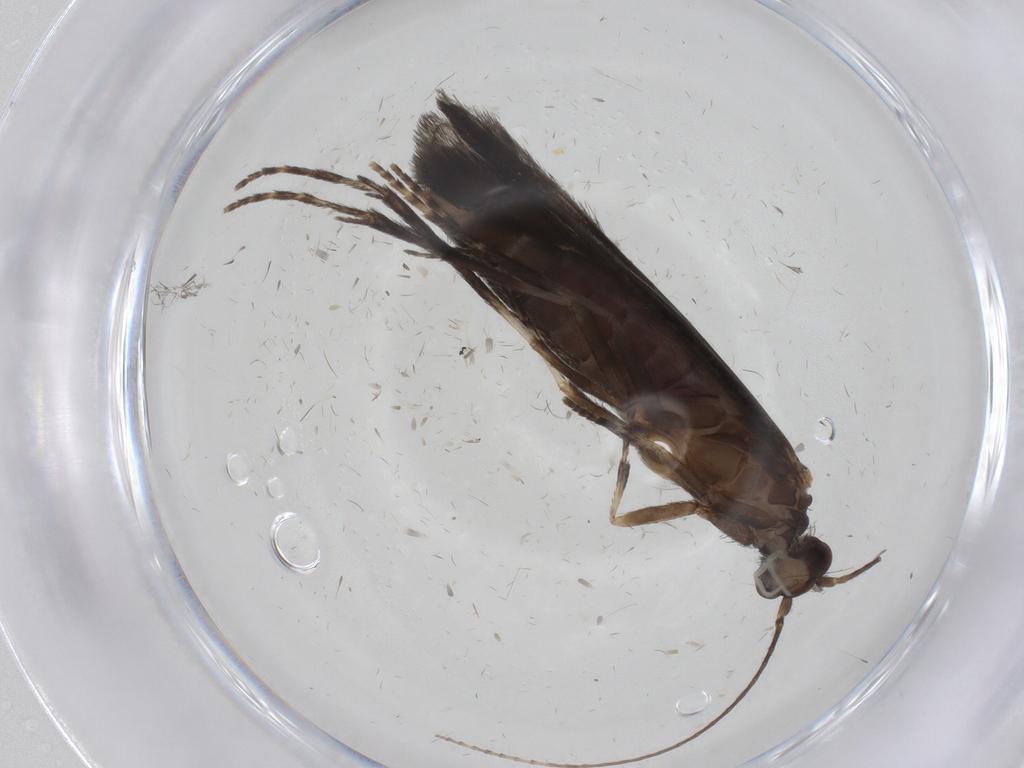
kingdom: Animalia
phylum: Arthropoda
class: Insecta
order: Trichoptera
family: Xiphocentronidae
